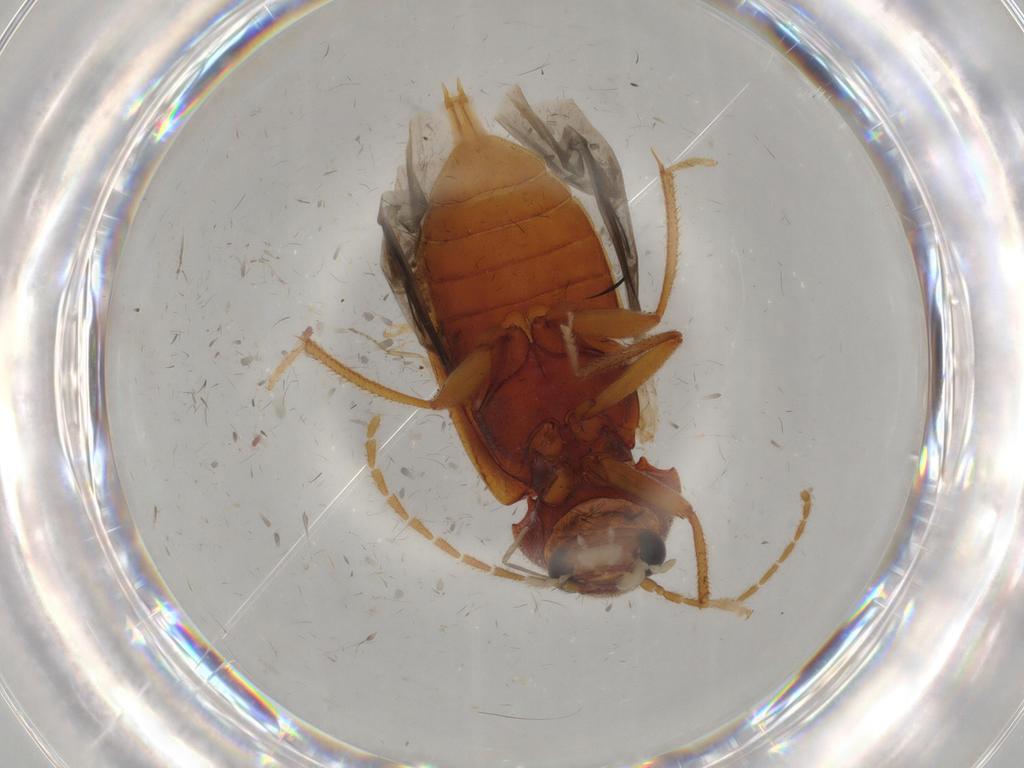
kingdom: Animalia
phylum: Arthropoda
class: Insecta
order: Coleoptera
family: Ptilodactylidae
